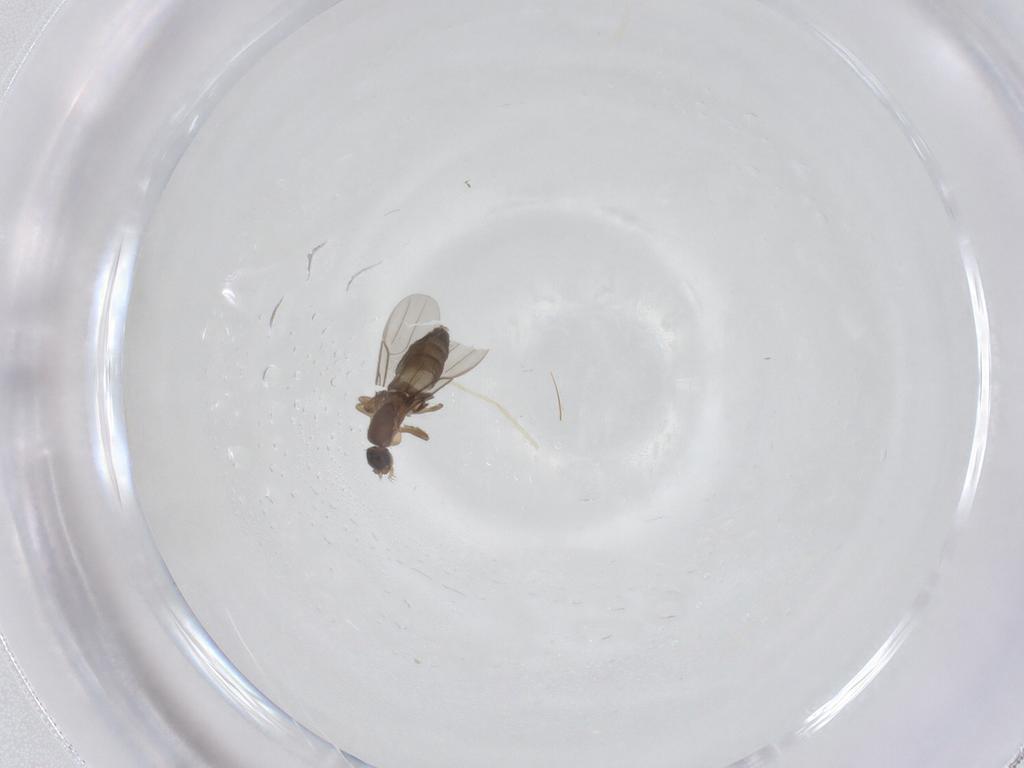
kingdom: Animalia
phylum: Arthropoda
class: Insecta
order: Diptera
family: Phoridae
